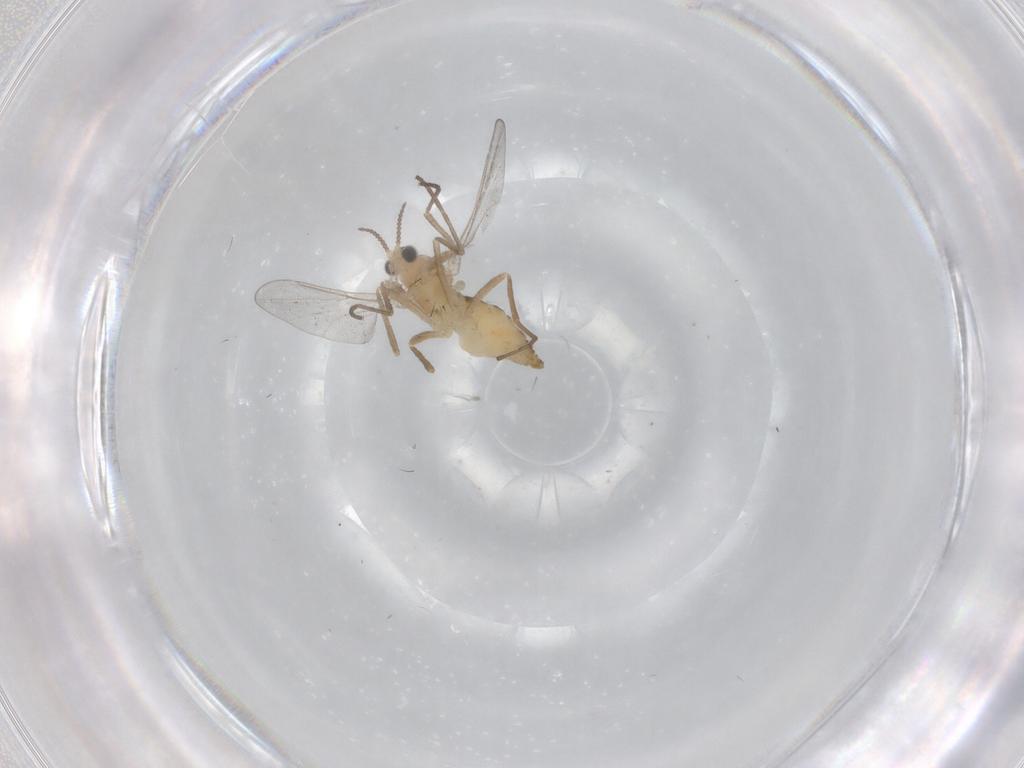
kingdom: Animalia
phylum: Arthropoda
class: Insecta
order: Diptera
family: Cecidomyiidae
